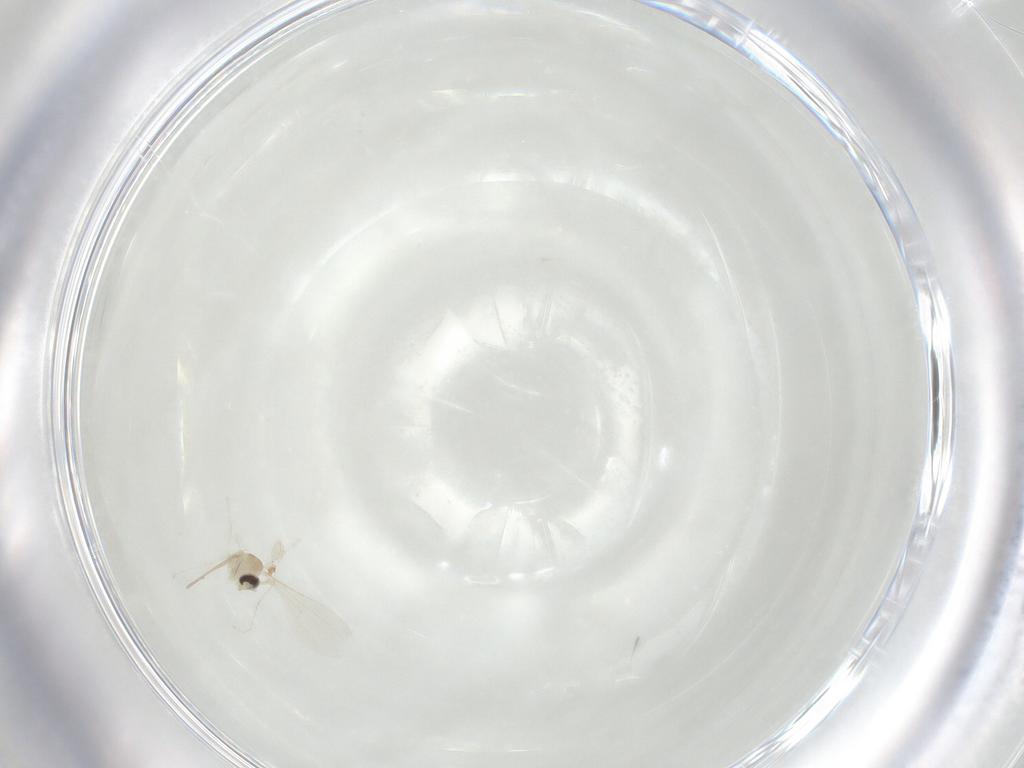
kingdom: Animalia
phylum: Arthropoda
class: Insecta
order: Blattodea
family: Ectobiidae
